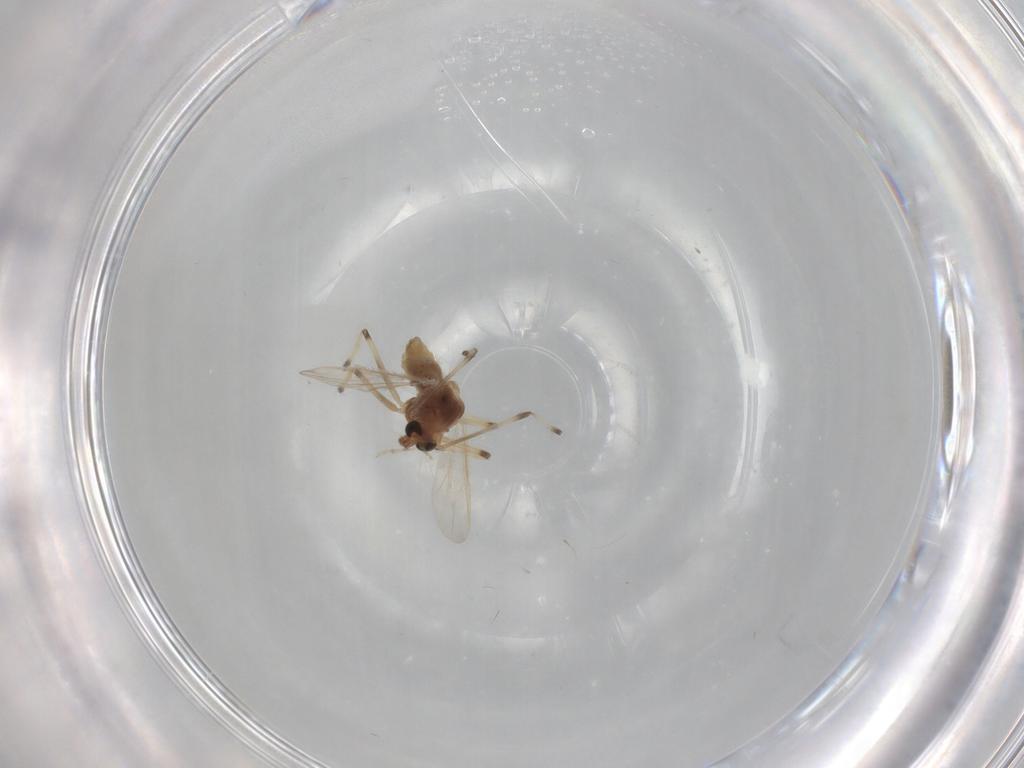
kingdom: Animalia
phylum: Arthropoda
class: Insecta
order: Diptera
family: Chironomidae
